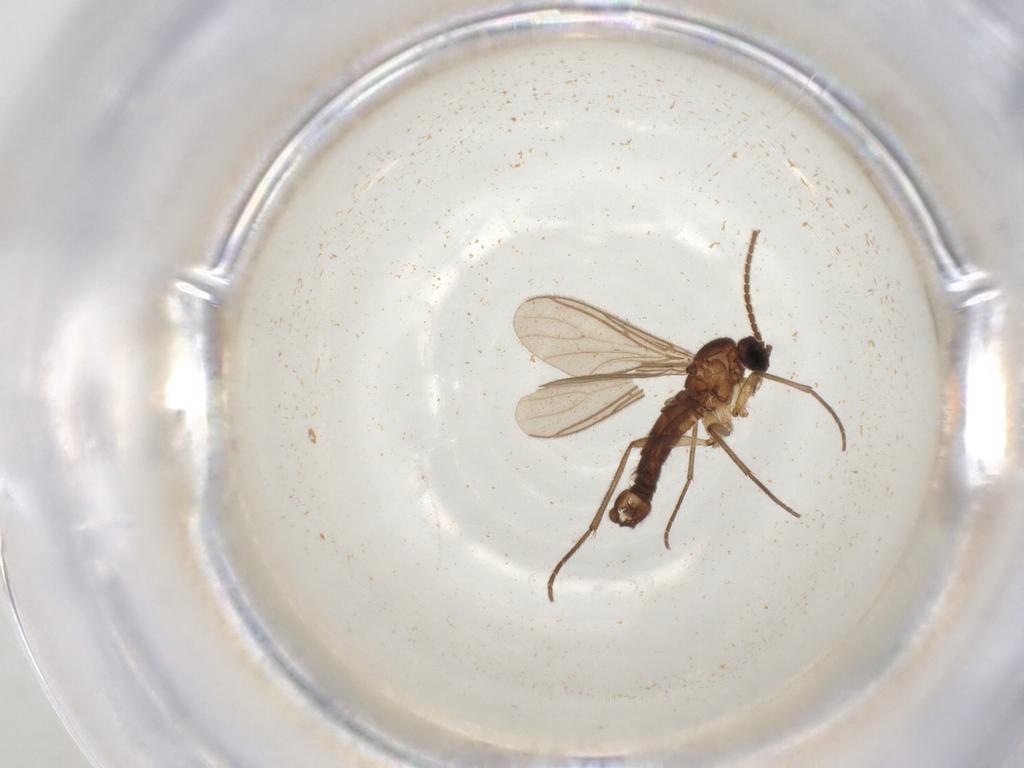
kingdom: Animalia
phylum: Arthropoda
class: Insecta
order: Diptera
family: Sciaridae
